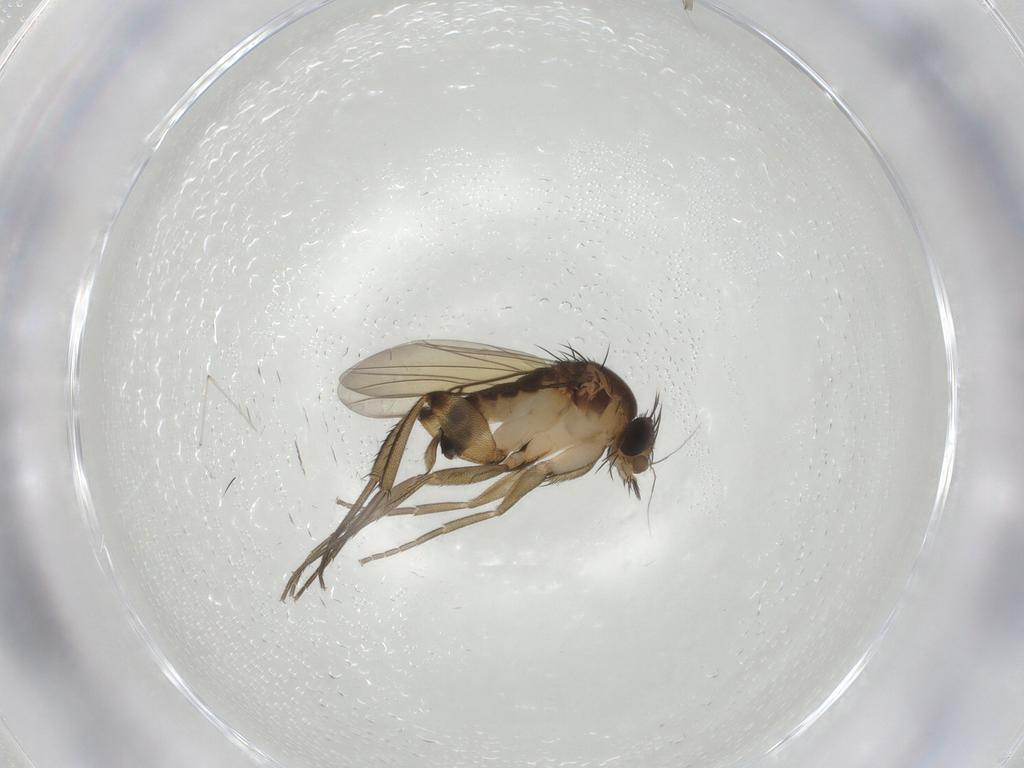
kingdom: Animalia
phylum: Arthropoda
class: Insecta
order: Diptera
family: Phoridae
